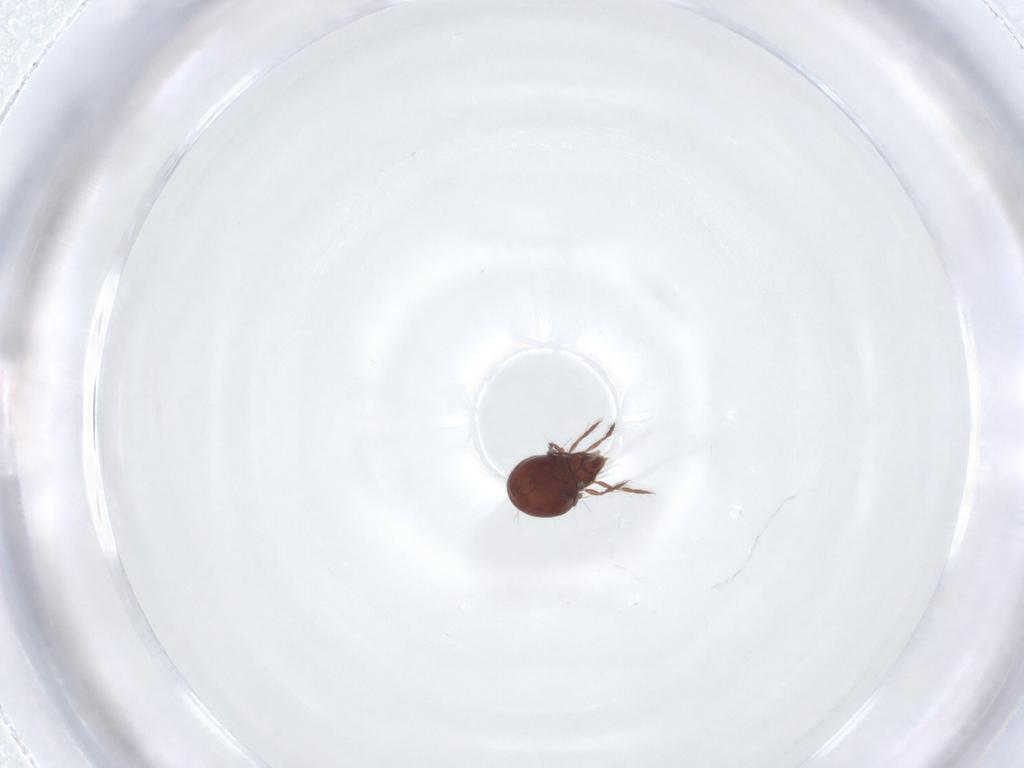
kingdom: Animalia
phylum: Arthropoda
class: Arachnida
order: Sarcoptiformes
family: Ceratoppiidae
